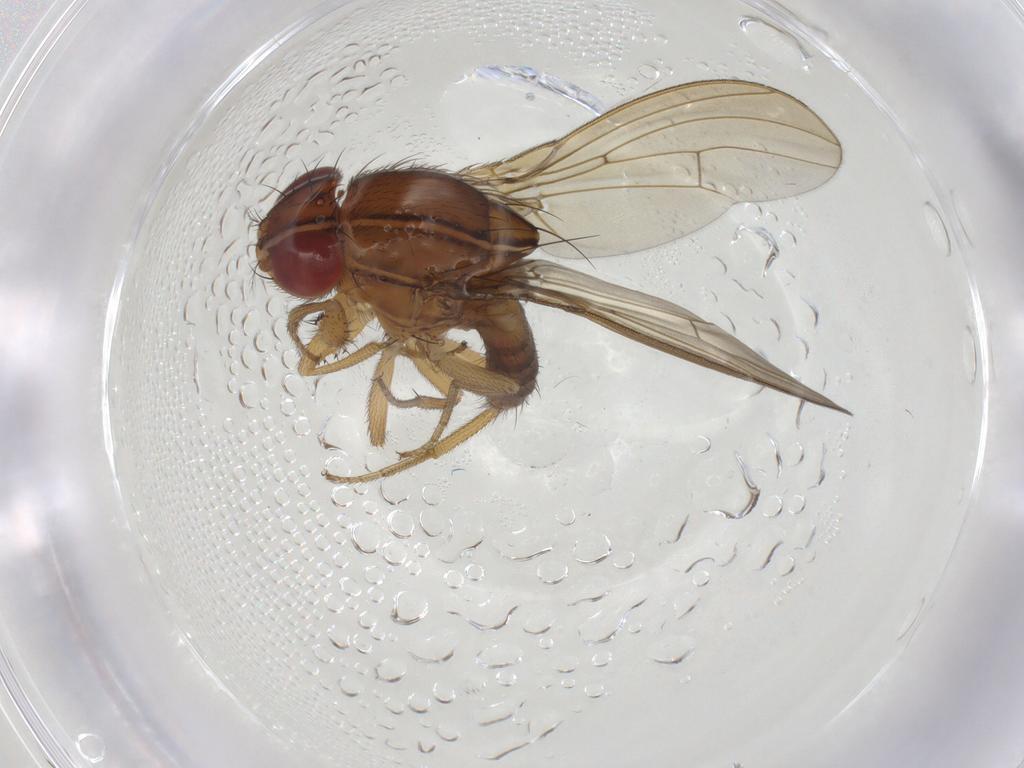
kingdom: Animalia
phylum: Arthropoda
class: Insecta
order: Diptera
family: Drosophilidae
